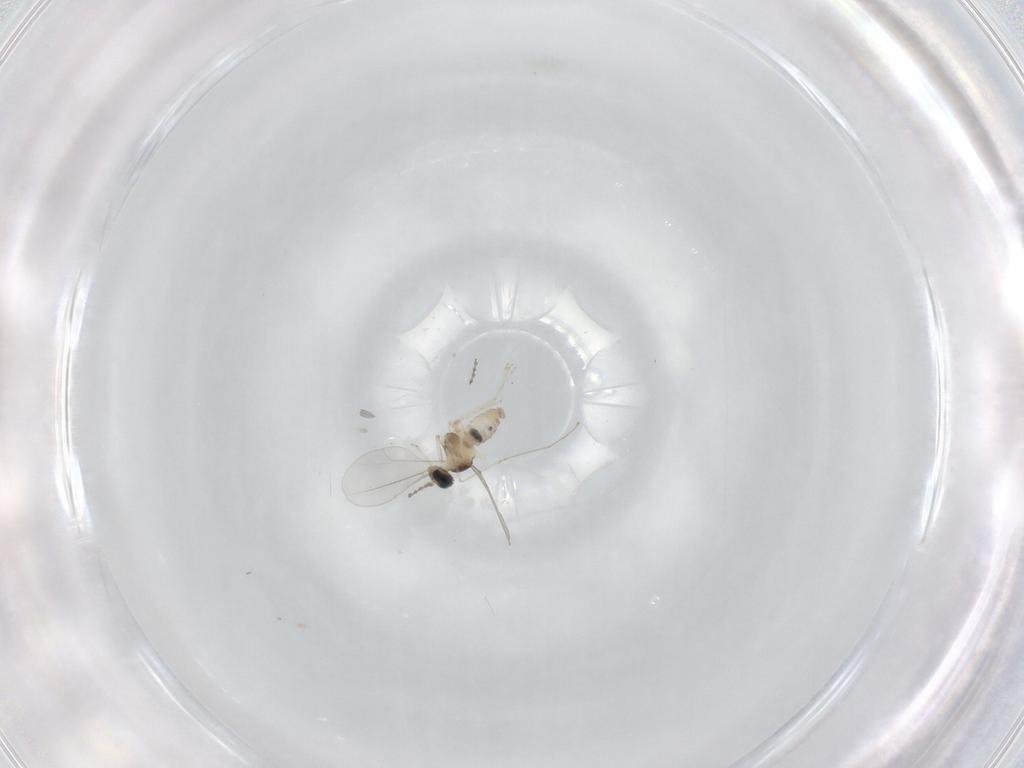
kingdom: Animalia
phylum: Arthropoda
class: Insecta
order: Diptera
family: Cecidomyiidae
